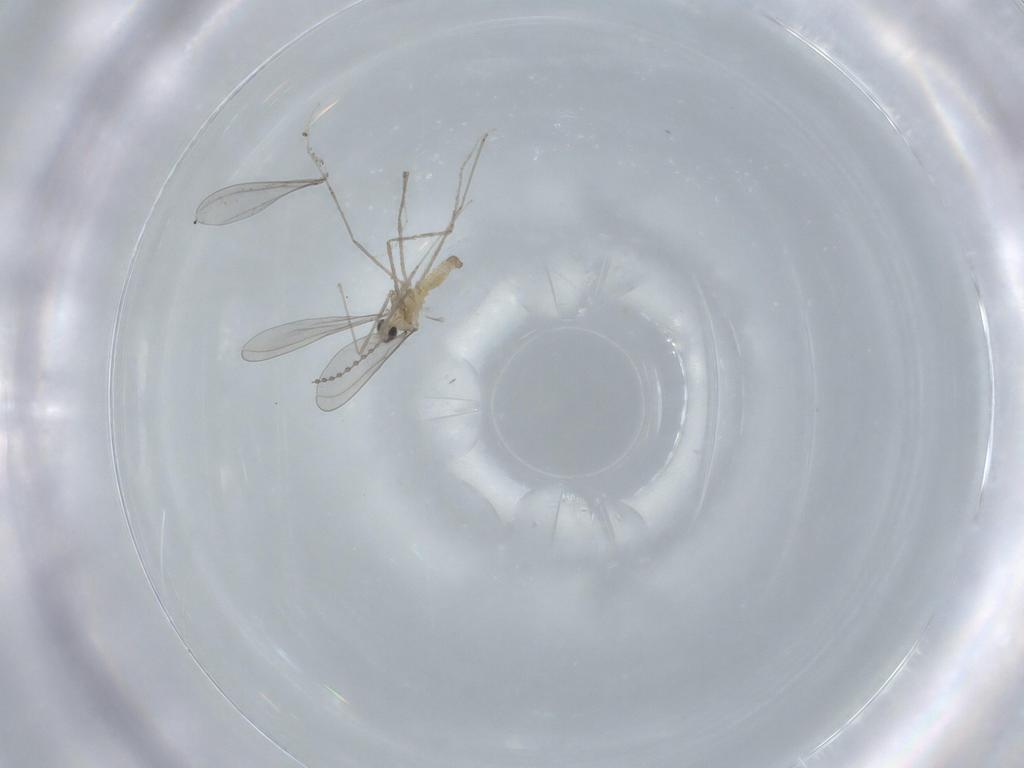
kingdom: Animalia
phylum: Arthropoda
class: Insecta
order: Diptera
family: Cecidomyiidae
